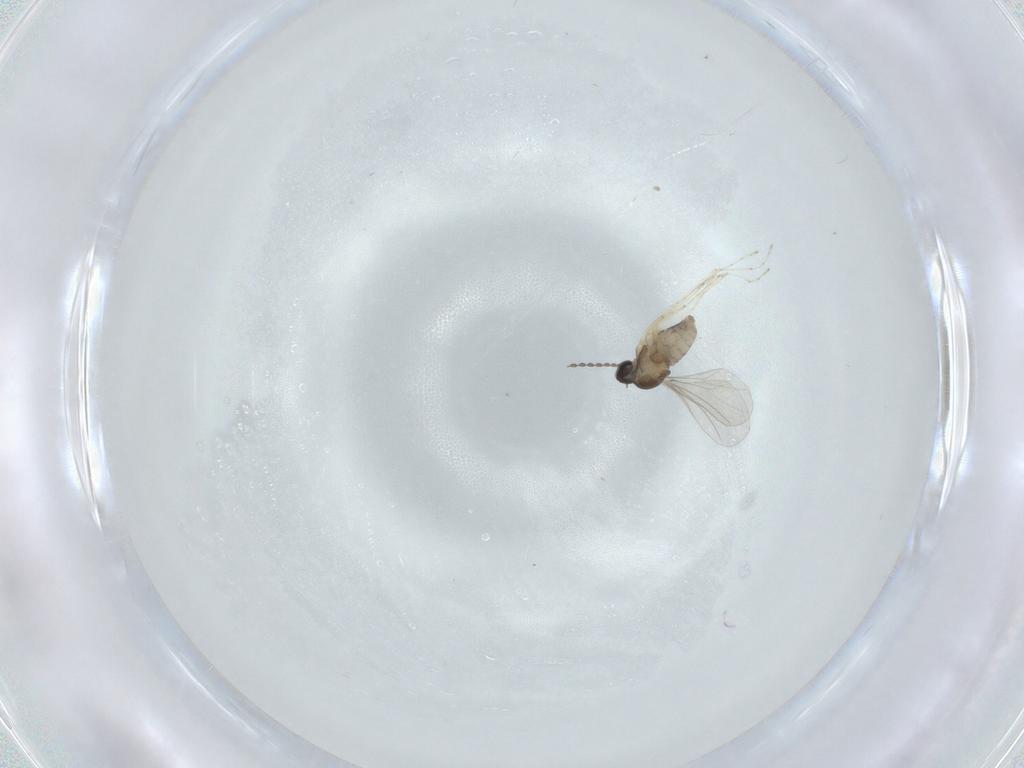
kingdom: Animalia
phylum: Arthropoda
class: Insecta
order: Diptera
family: Cecidomyiidae
